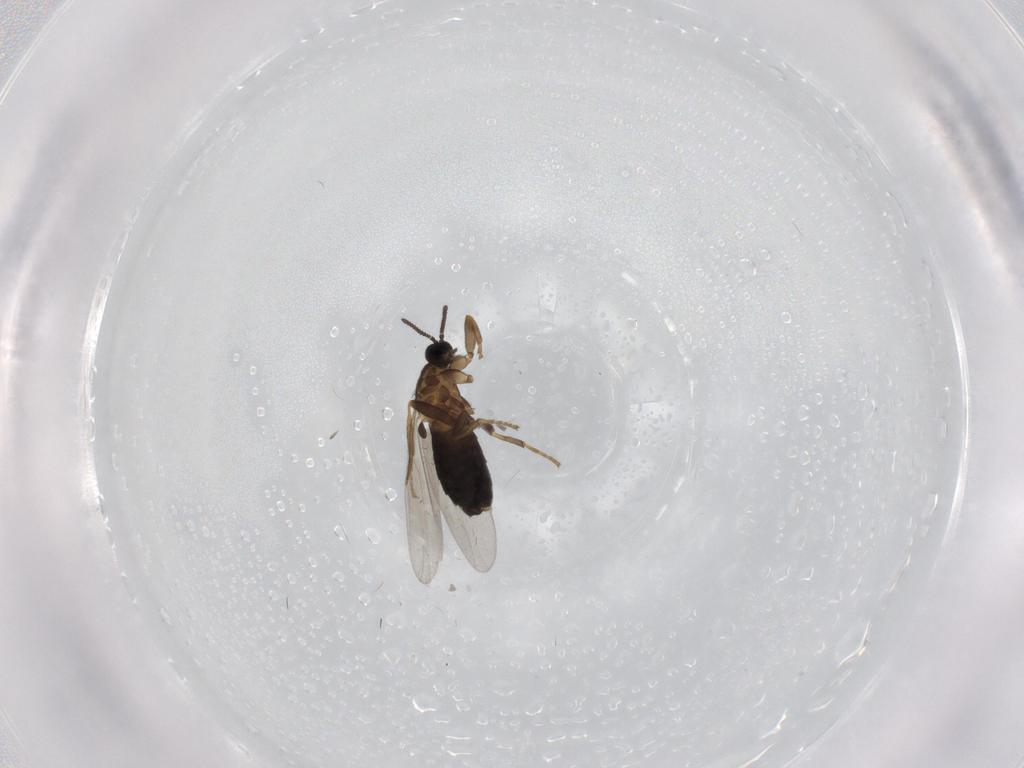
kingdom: Animalia
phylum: Arthropoda
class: Insecta
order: Diptera
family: Scatopsidae
